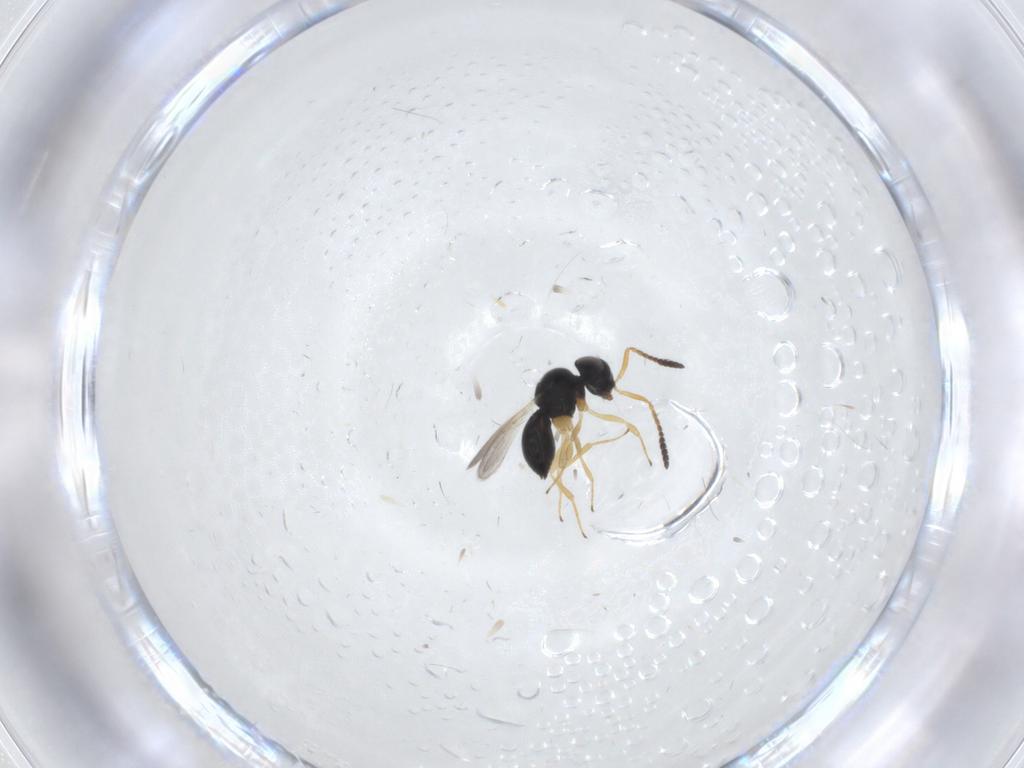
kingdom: Animalia
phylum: Arthropoda
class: Insecta
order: Hymenoptera
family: Scelionidae
